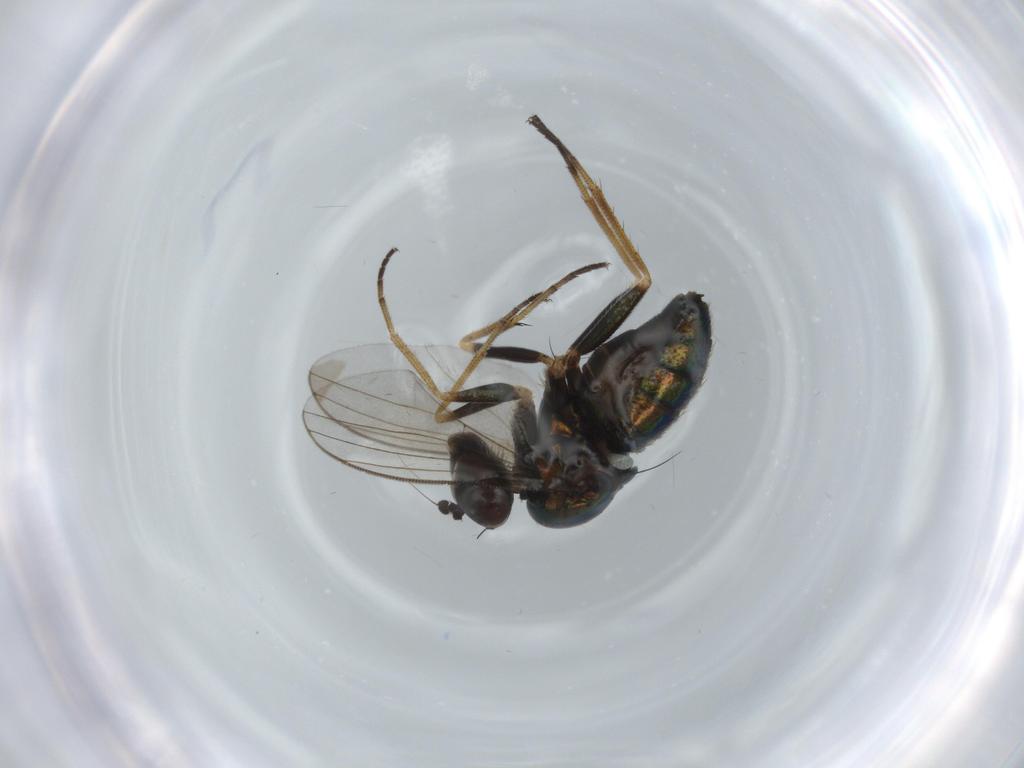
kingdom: Animalia
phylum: Arthropoda
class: Insecta
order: Diptera
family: Chironomidae
